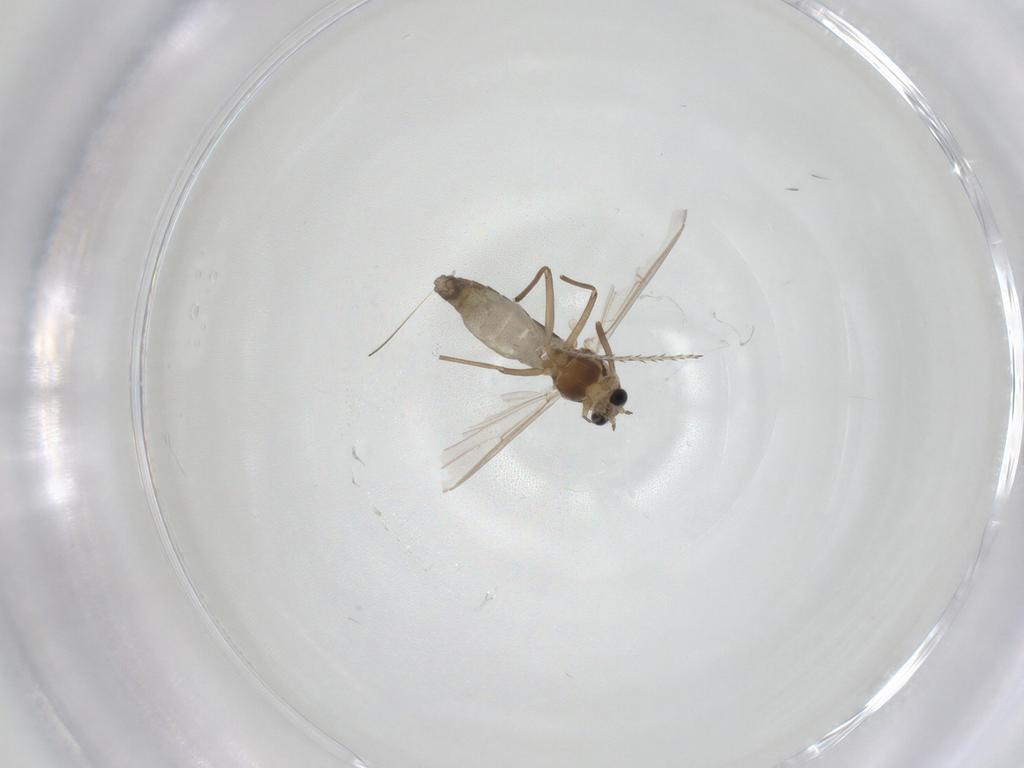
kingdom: Animalia
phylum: Arthropoda
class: Insecta
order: Diptera
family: Chironomidae
